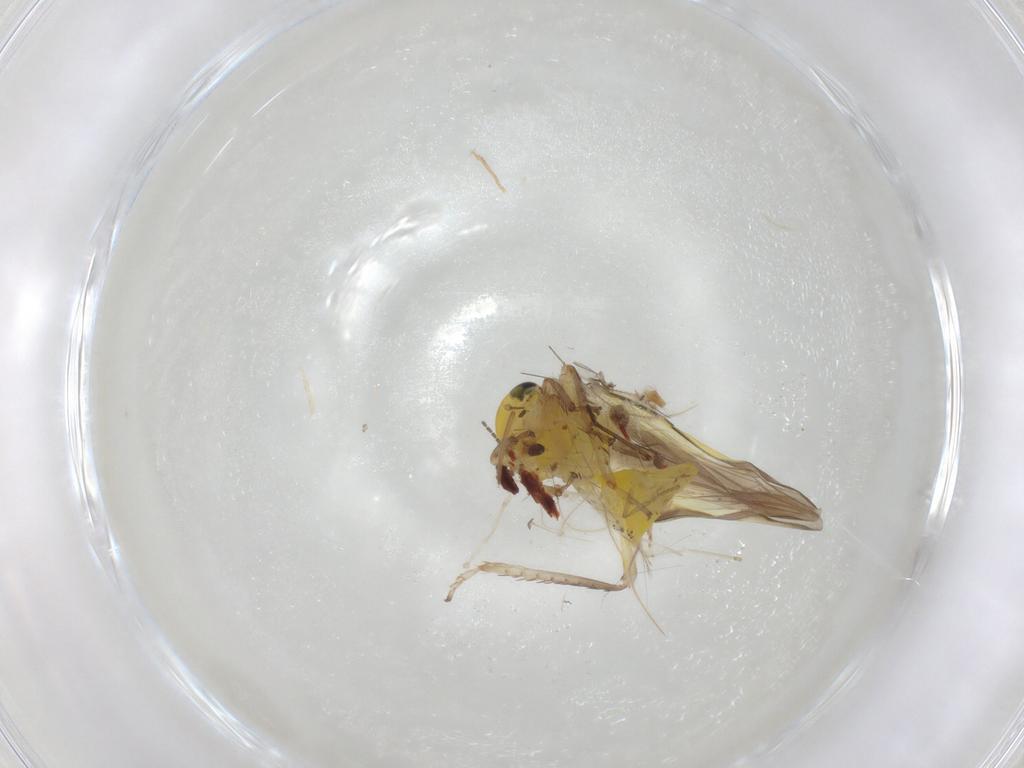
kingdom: Animalia
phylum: Arthropoda
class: Insecta
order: Hemiptera
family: Cicadellidae
